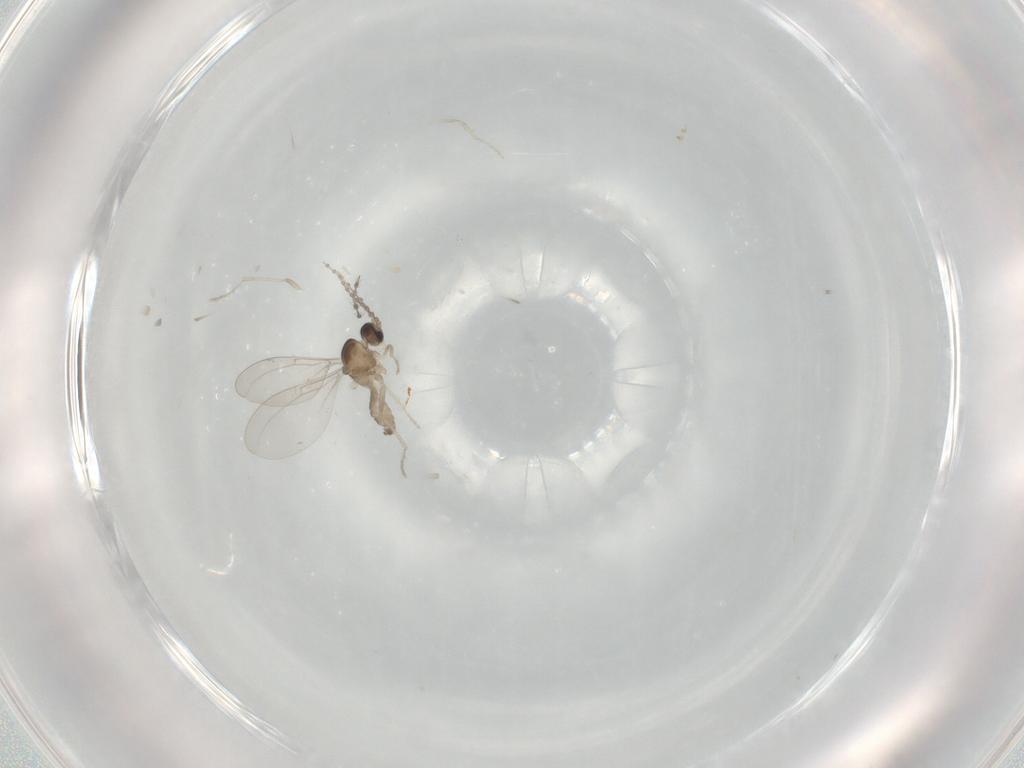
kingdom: Animalia
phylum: Arthropoda
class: Insecta
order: Diptera
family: Cecidomyiidae
